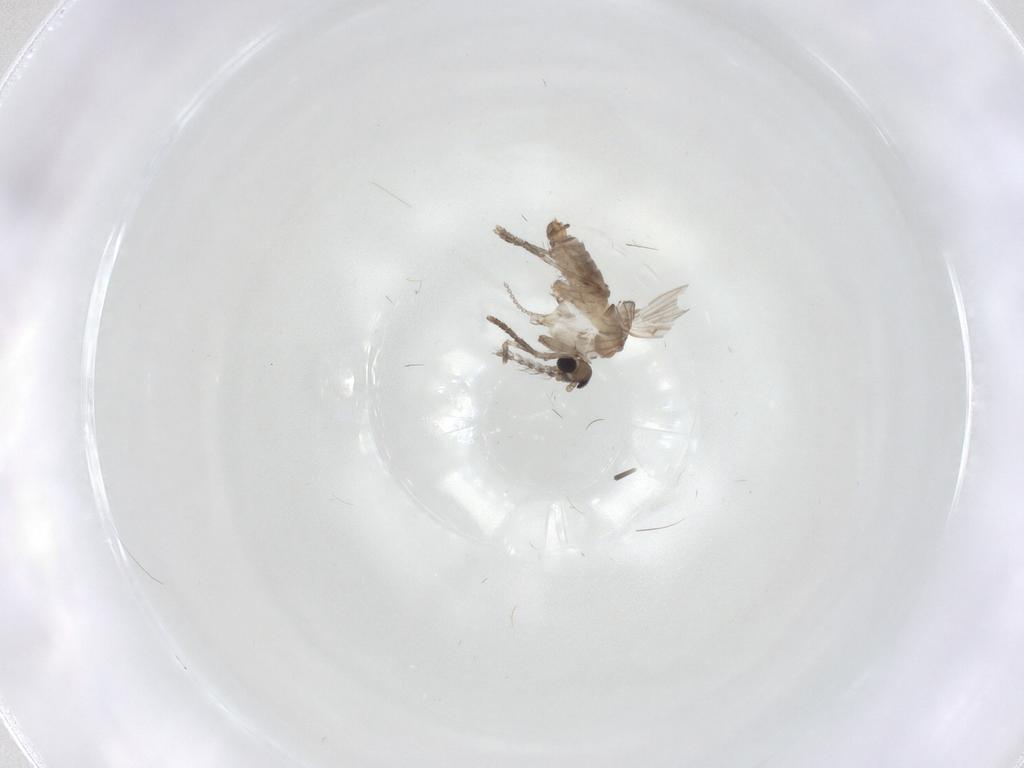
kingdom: Animalia
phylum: Arthropoda
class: Insecta
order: Diptera
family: Psychodidae
